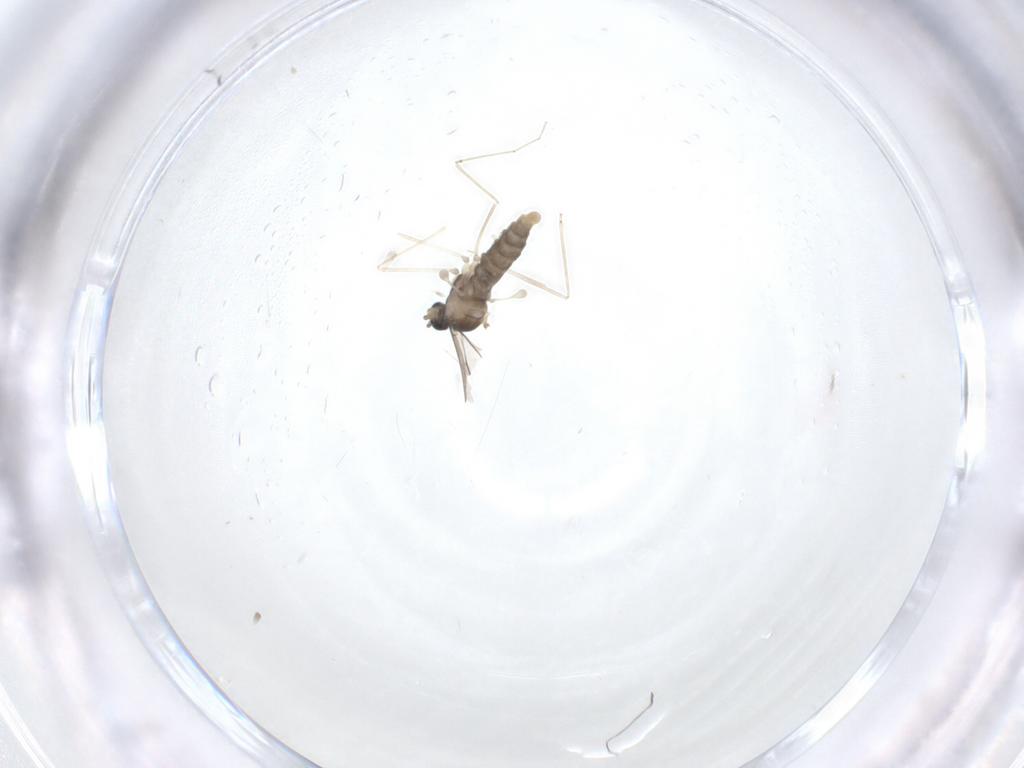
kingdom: Animalia
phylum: Arthropoda
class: Insecta
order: Diptera
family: Cecidomyiidae
